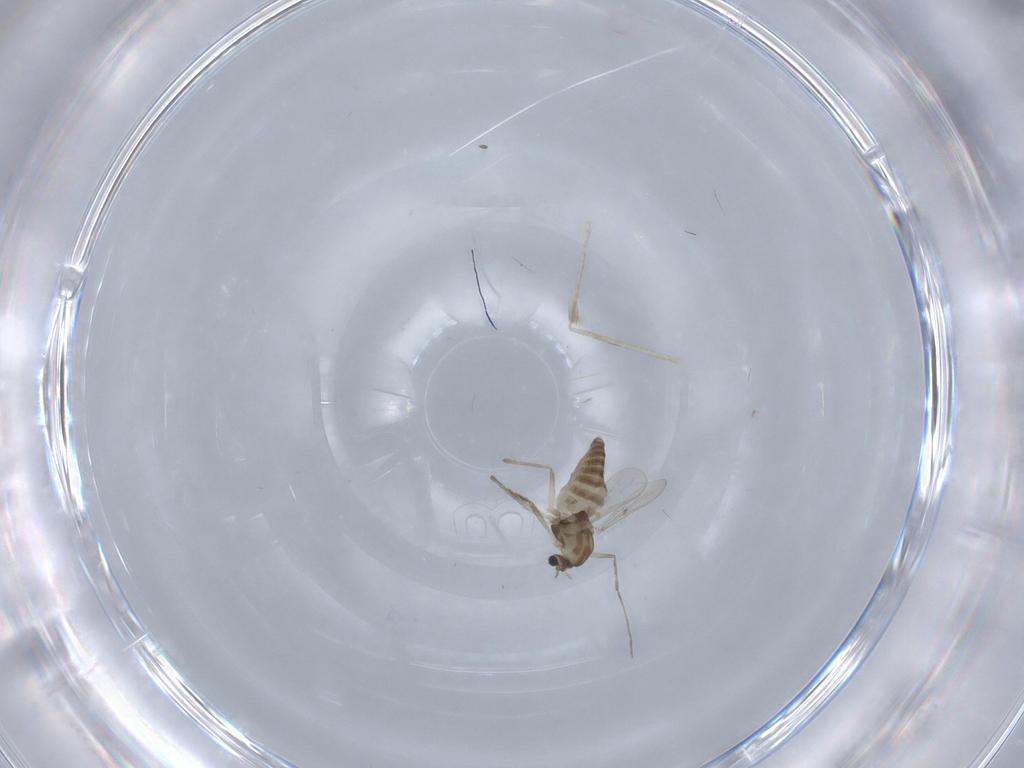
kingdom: Animalia
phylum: Arthropoda
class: Insecta
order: Diptera
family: Chironomidae
